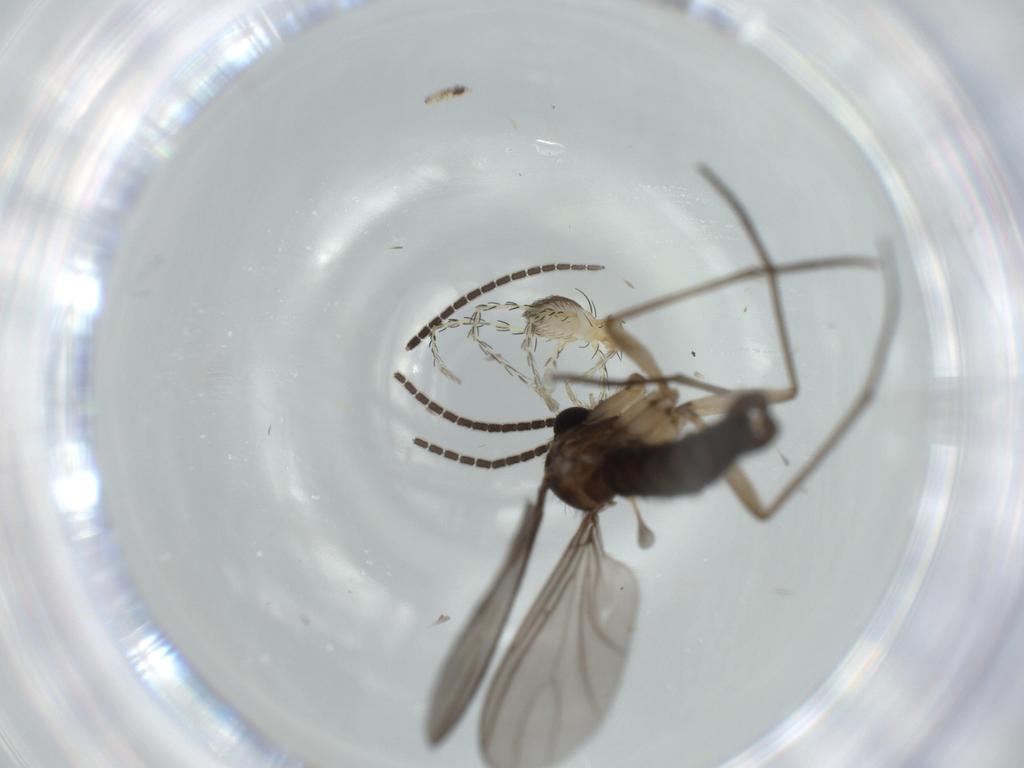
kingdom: Animalia
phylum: Arthropoda
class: Insecta
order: Diptera
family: Sciaridae
